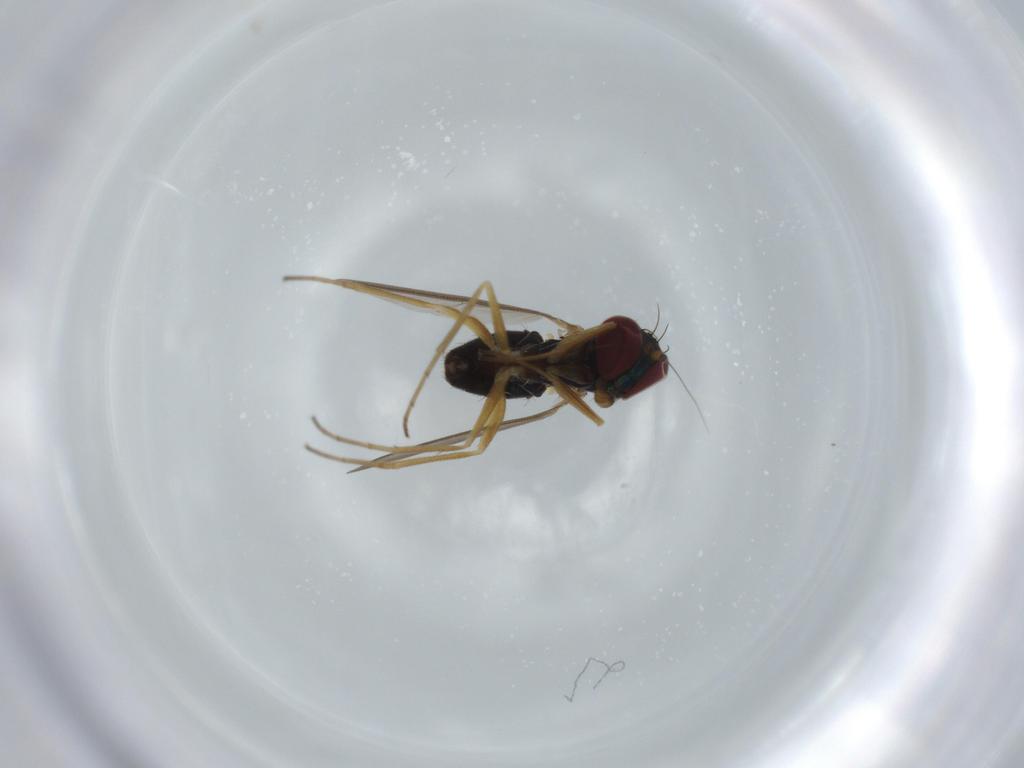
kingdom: Animalia
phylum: Arthropoda
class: Insecta
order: Diptera
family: Dolichopodidae
